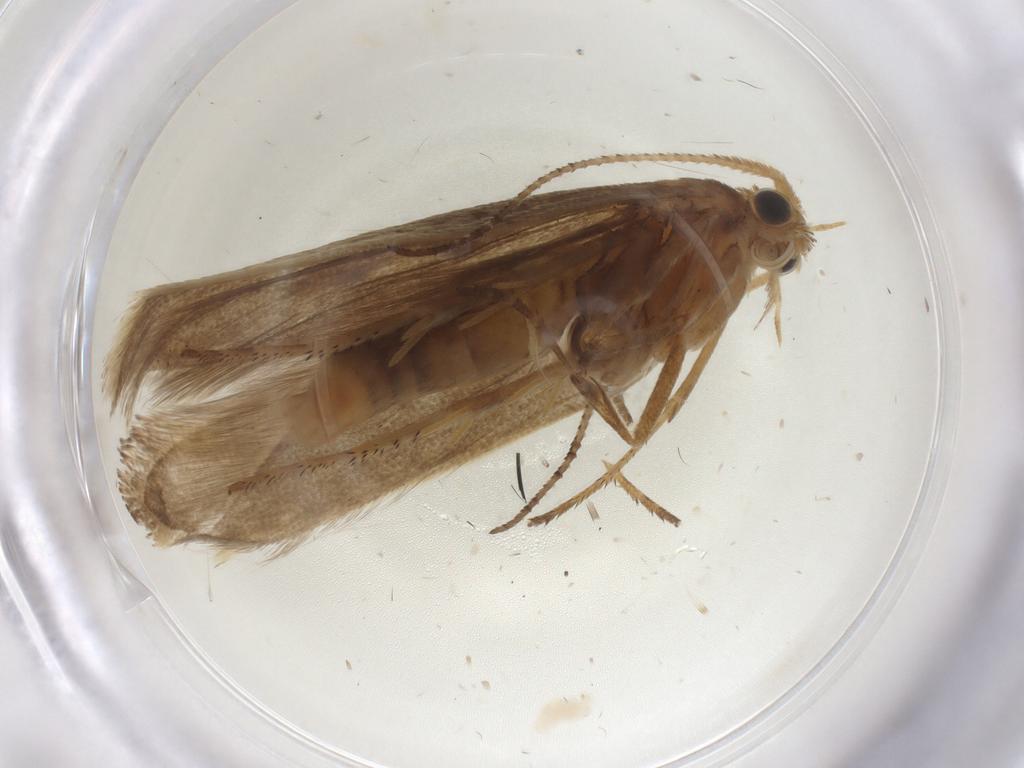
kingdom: Animalia
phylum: Arthropoda
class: Insecta
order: Lepidoptera
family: Tortricidae
